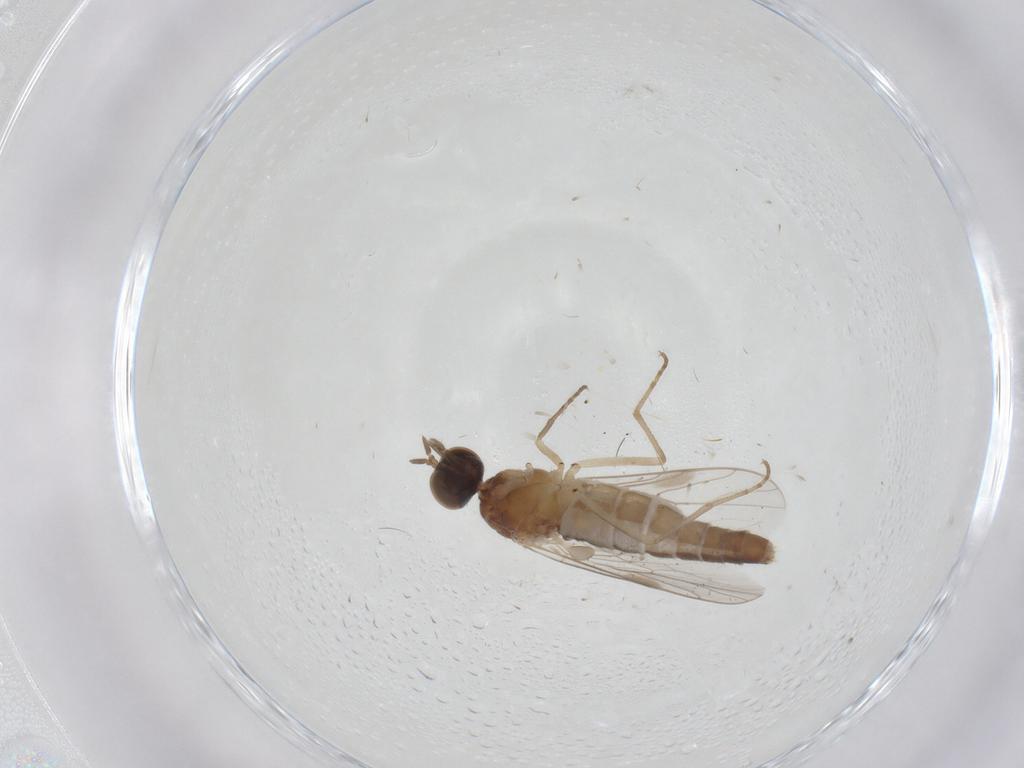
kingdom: Animalia
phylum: Arthropoda
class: Insecta
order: Diptera
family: Scenopinidae
